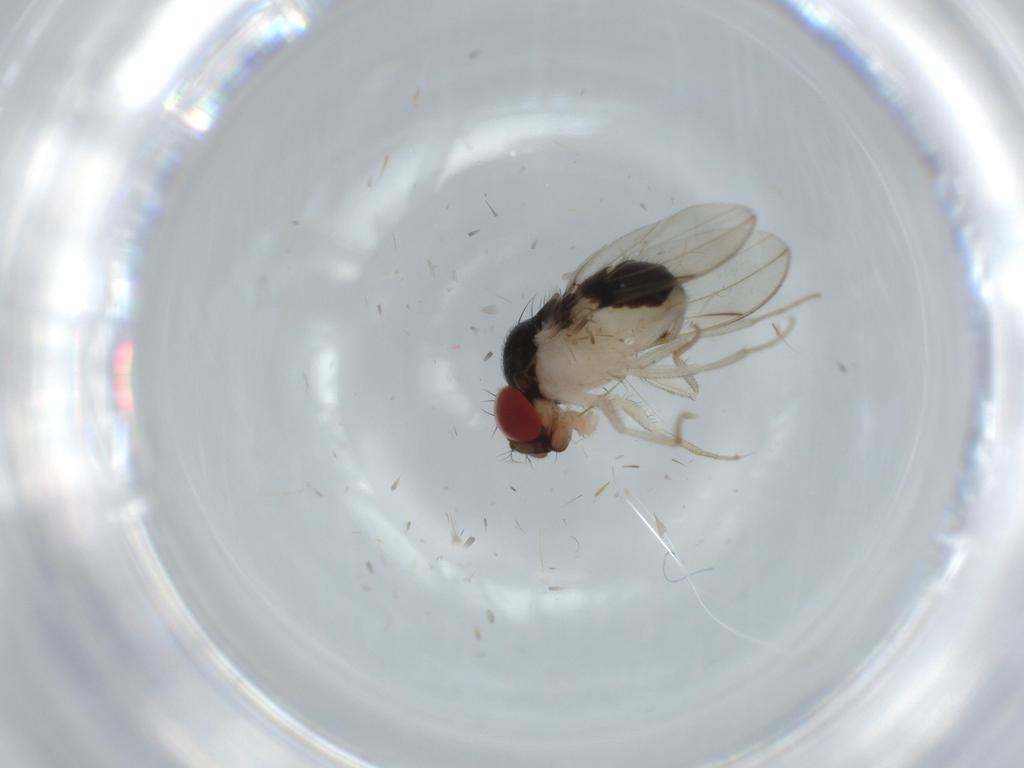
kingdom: Animalia
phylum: Arthropoda
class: Insecta
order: Diptera
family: Drosophilidae
